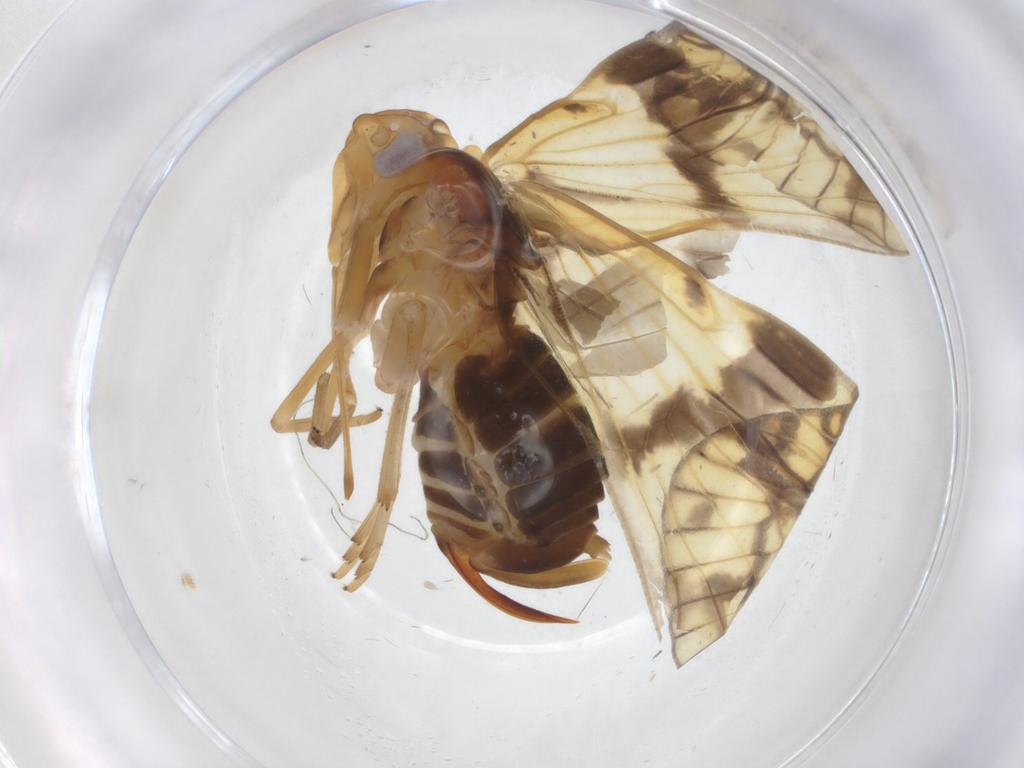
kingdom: Animalia
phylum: Arthropoda
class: Insecta
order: Hemiptera
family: Cixiidae
